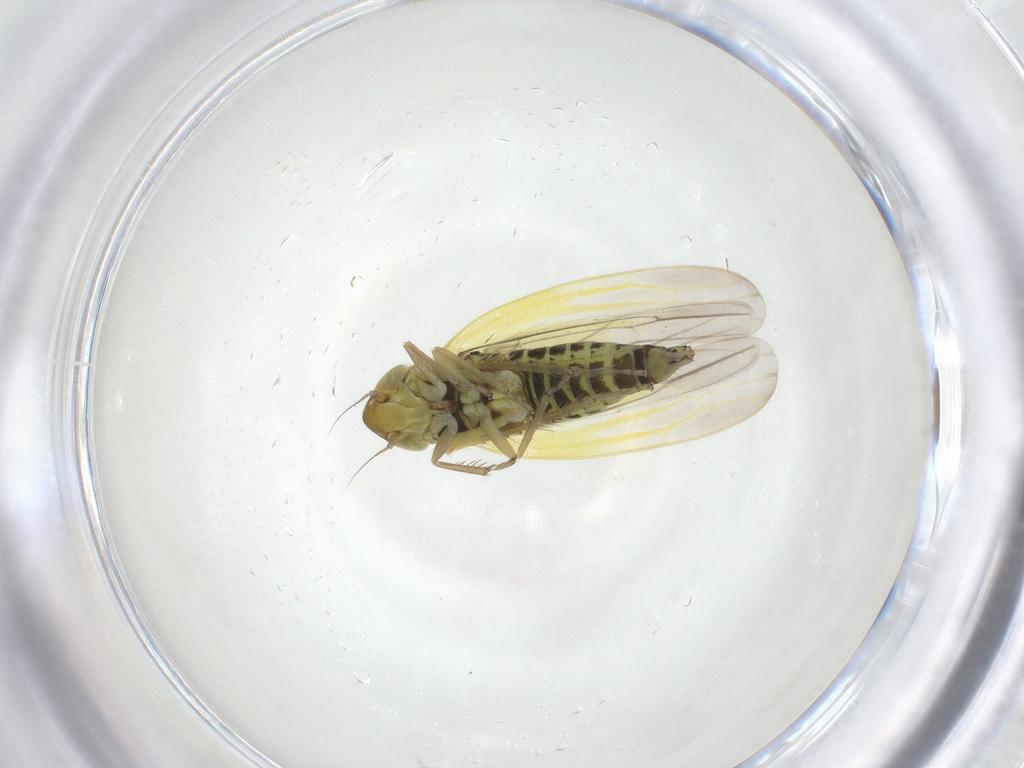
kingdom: Animalia
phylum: Arthropoda
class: Insecta
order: Hemiptera
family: Cicadellidae
